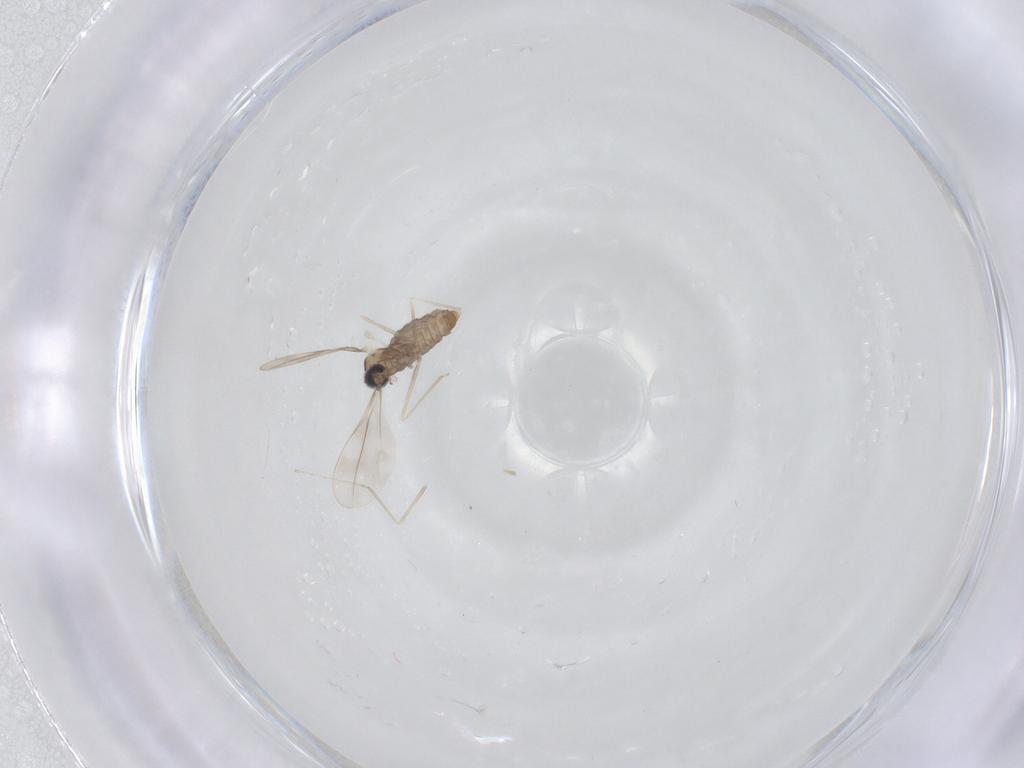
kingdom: Animalia
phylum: Arthropoda
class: Insecta
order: Diptera
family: Cecidomyiidae
